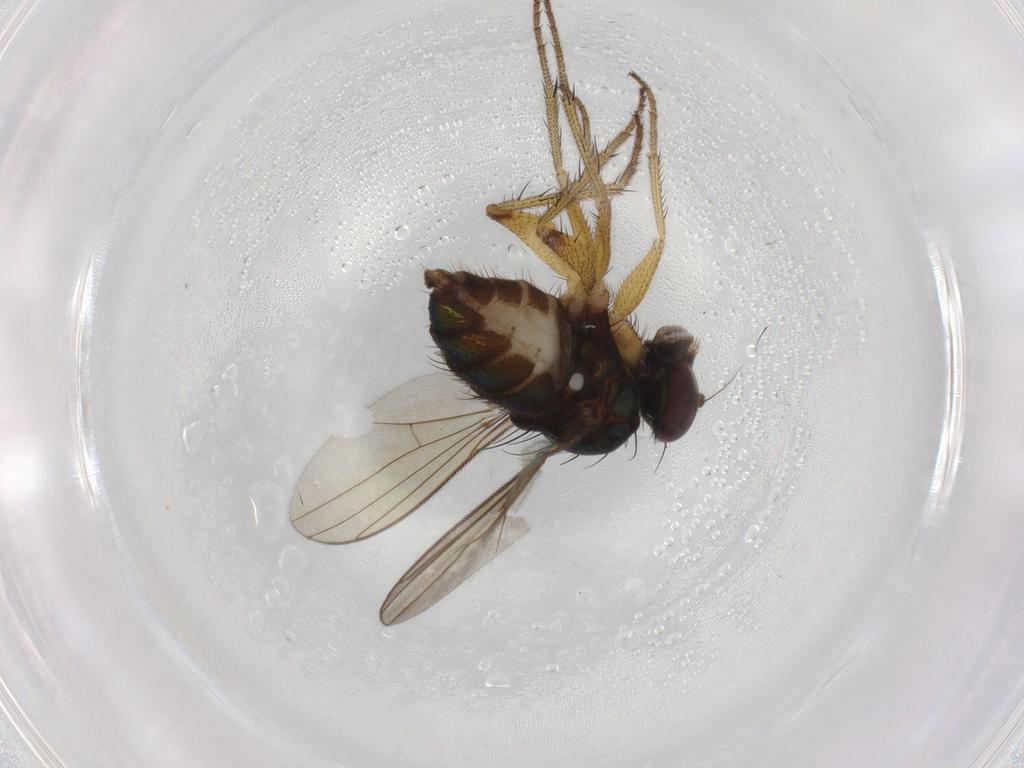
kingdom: Animalia
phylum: Arthropoda
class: Insecta
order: Diptera
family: Dolichopodidae
